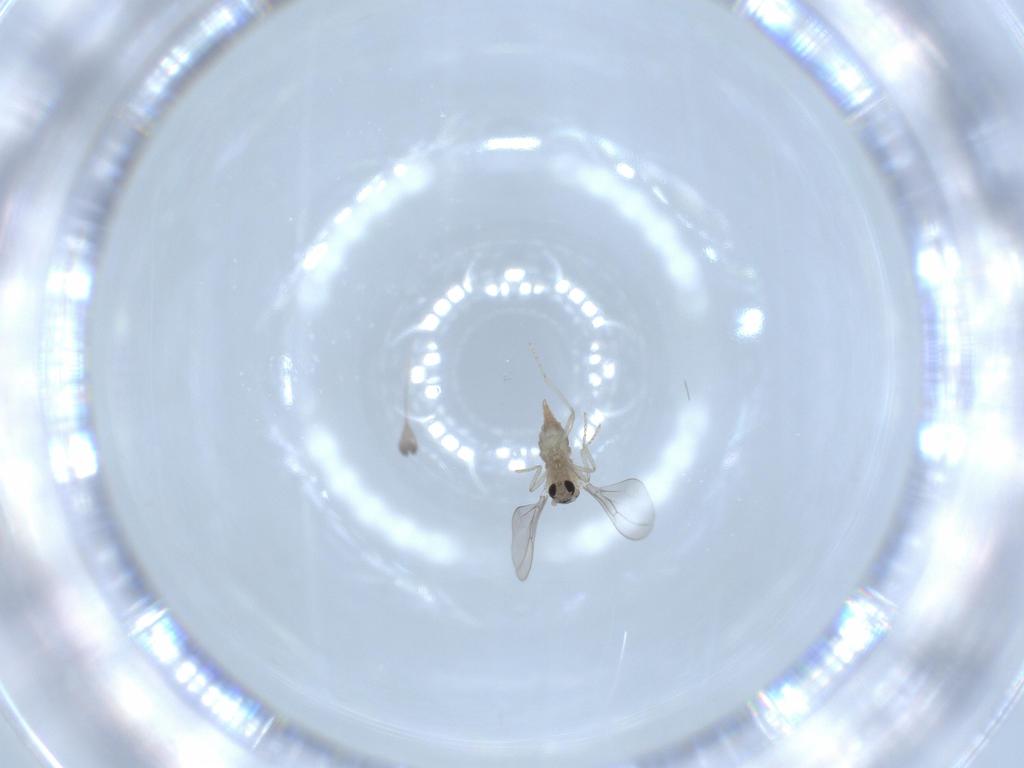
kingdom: Animalia
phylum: Arthropoda
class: Insecta
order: Diptera
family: Cecidomyiidae
